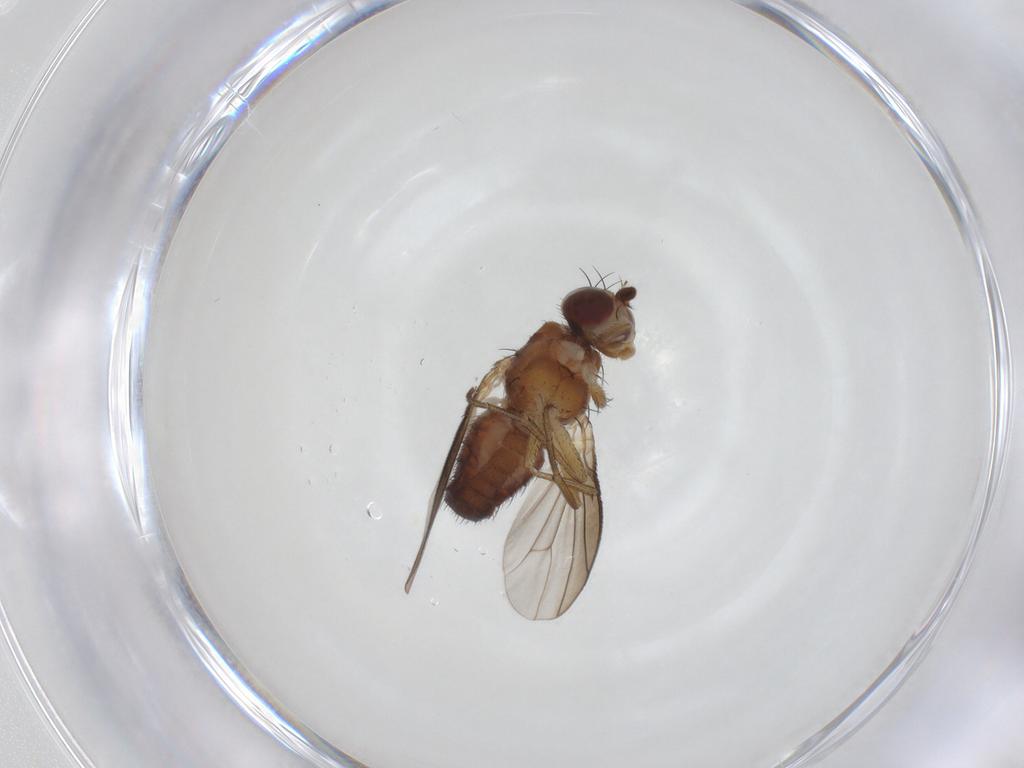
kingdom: Animalia
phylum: Arthropoda
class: Insecta
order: Diptera
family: Heleomyzidae
